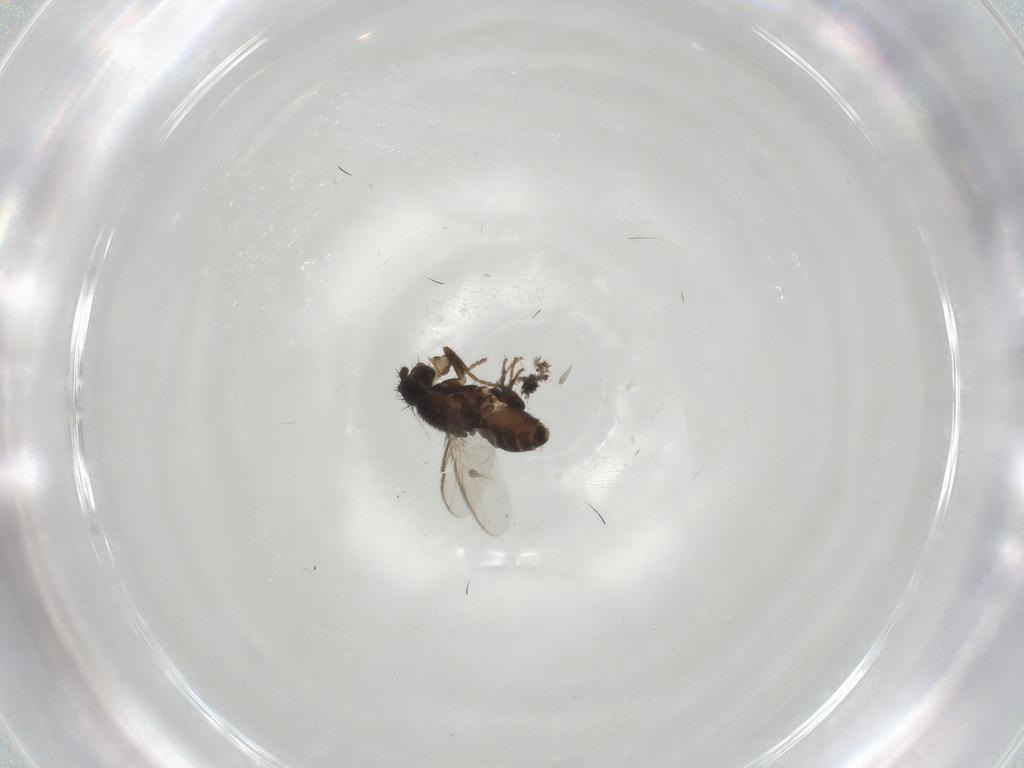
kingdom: Animalia
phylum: Arthropoda
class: Insecta
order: Diptera
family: Sphaeroceridae
